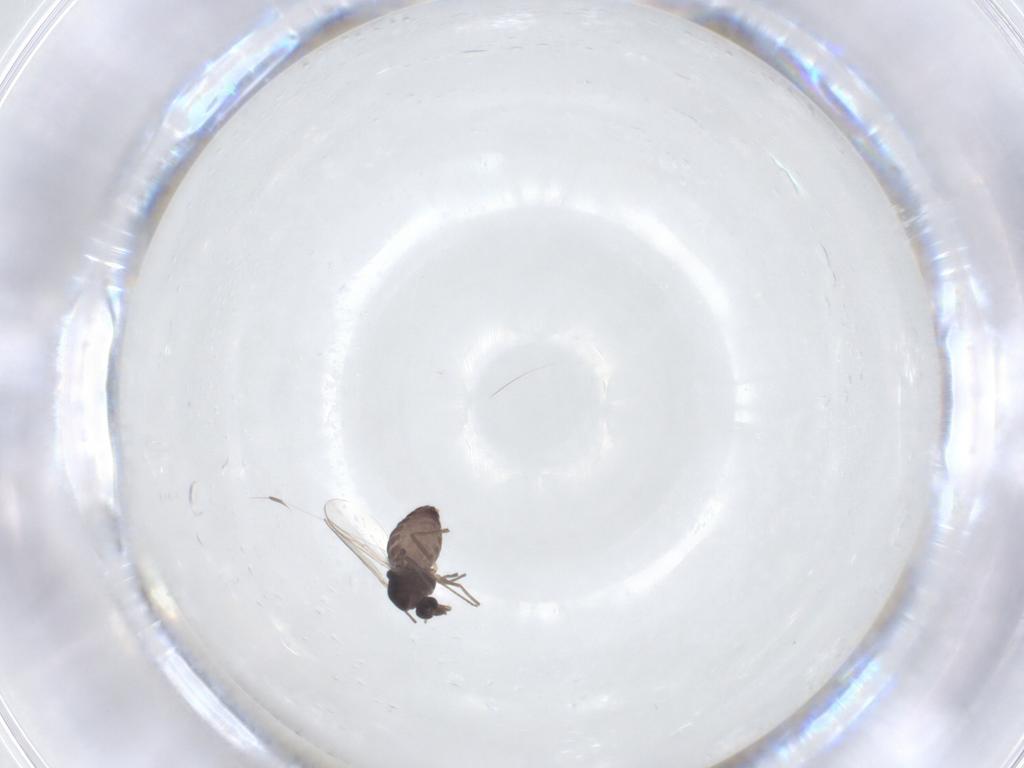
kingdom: Animalia
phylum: Arthropoda
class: Insecta
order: Diptera
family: Chironomidae
